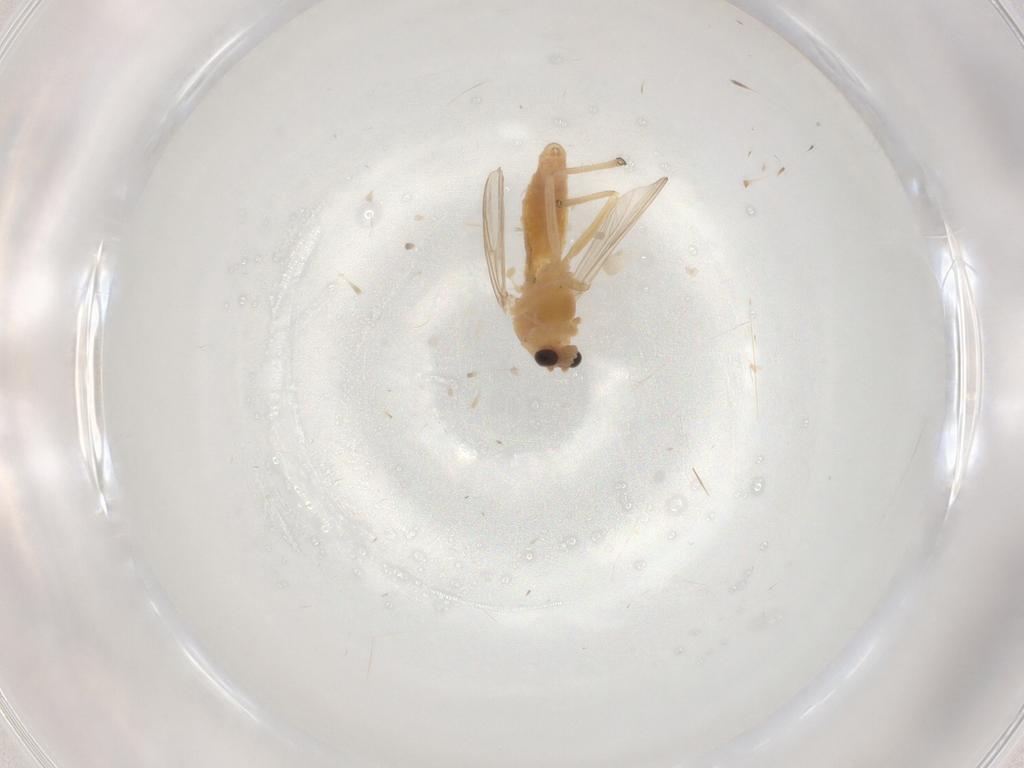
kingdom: Animalia
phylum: Arthropoda
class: Insecta
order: Diptera
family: Chironomidae
